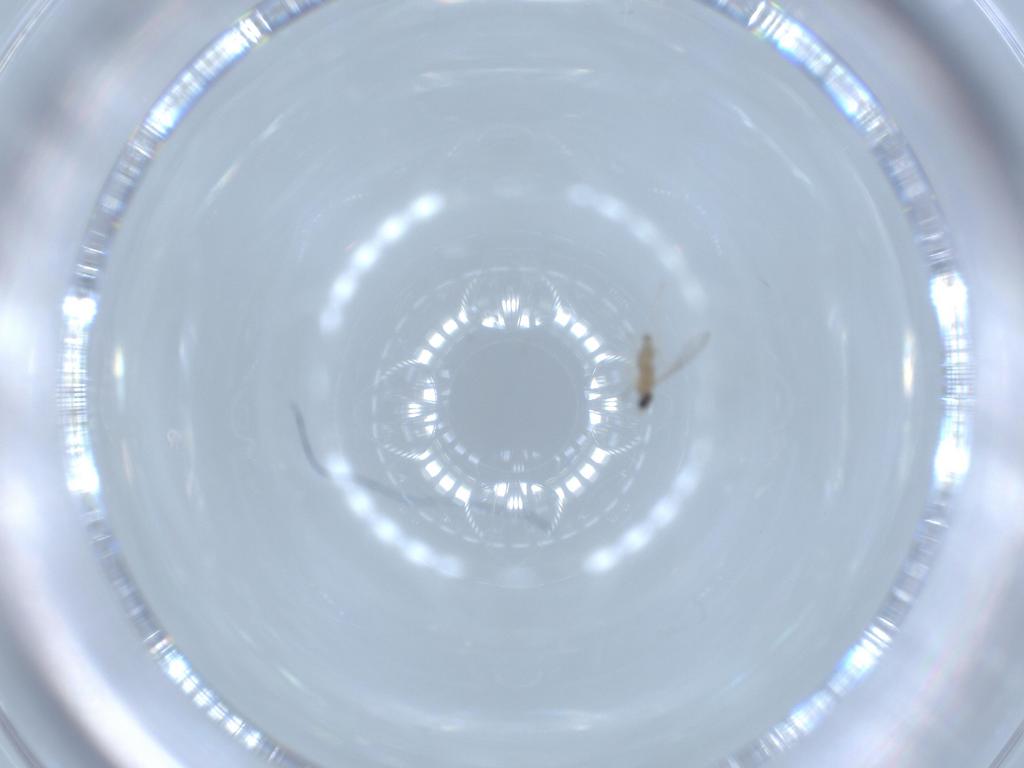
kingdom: Animalia
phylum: Arthropoda
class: Insecta
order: Diptera
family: Cecidomyiidae
